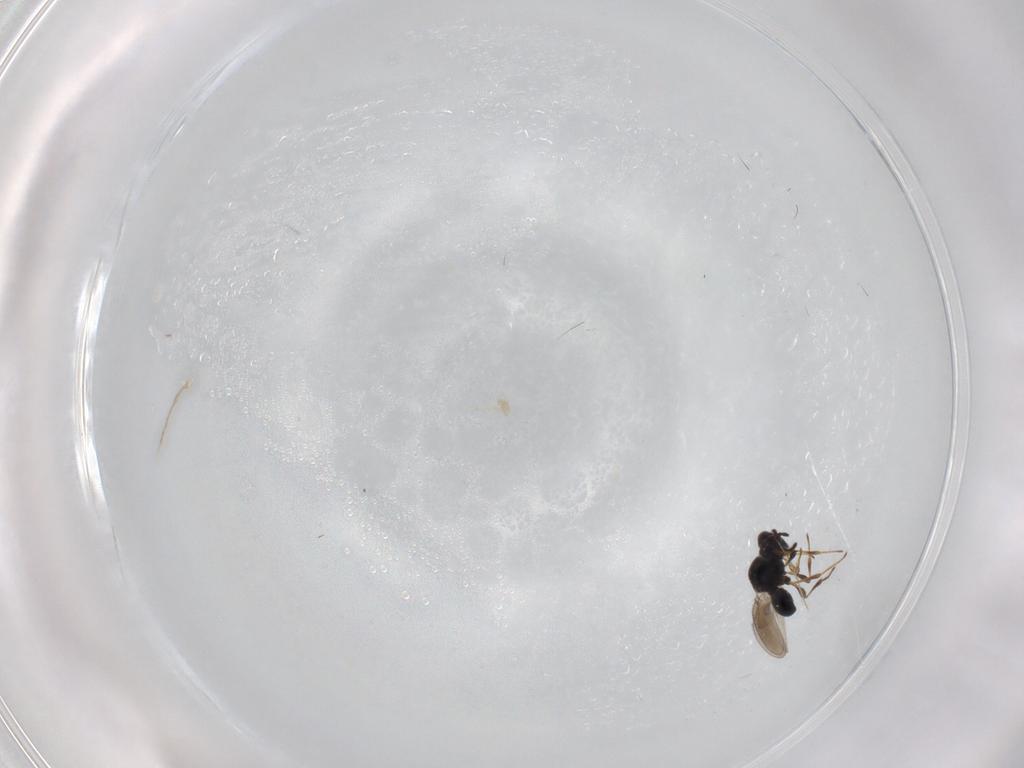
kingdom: Animalia
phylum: Arthropoda
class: Insecta
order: Hymenoptera
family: Platygastridae
